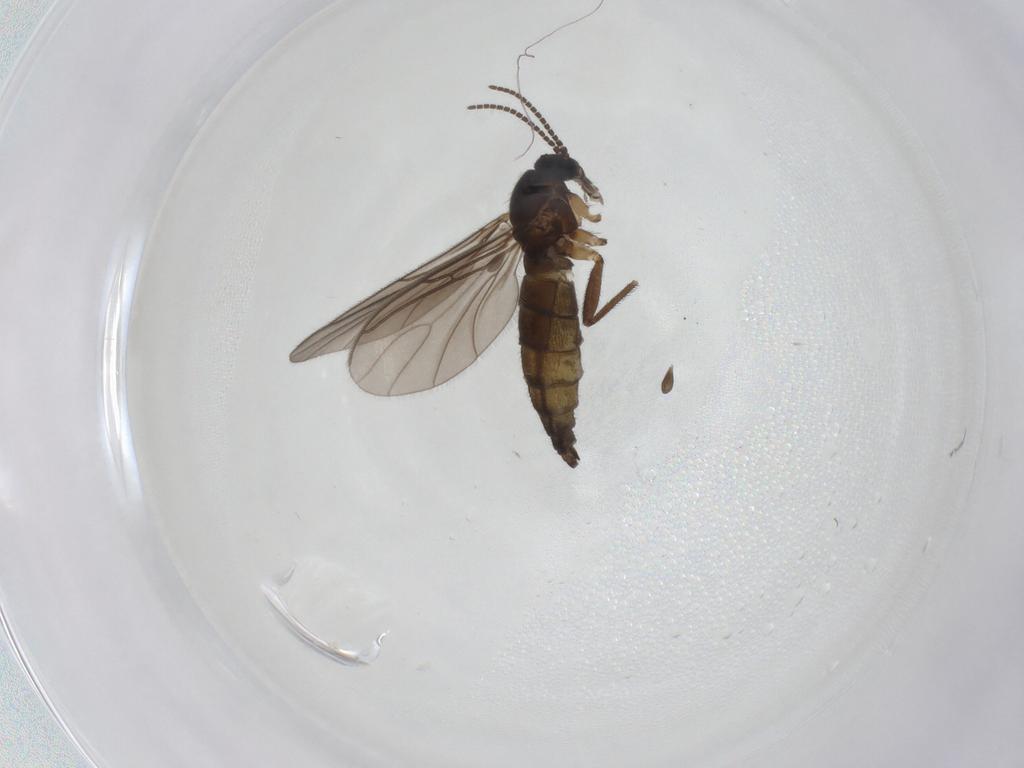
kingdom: Animalia
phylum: Arthropoda
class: Insecta
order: Diptera
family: Sciaridae
